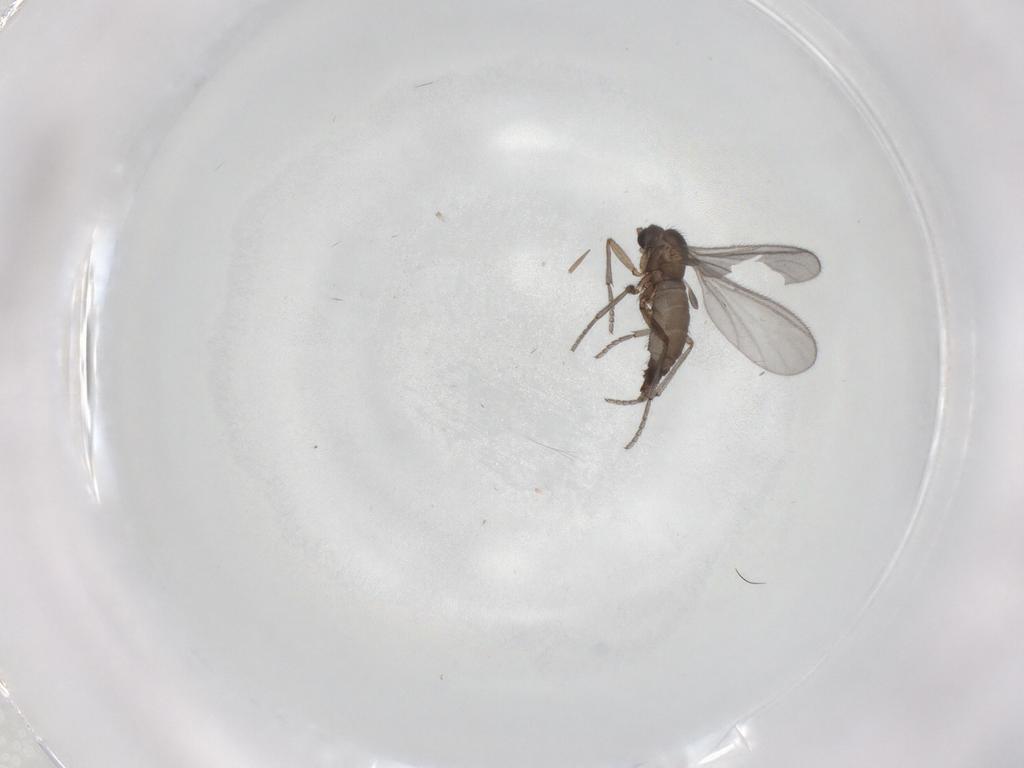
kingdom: Animalia
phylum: Arthropoda
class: Insecta
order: Diptera
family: Sciaridae
